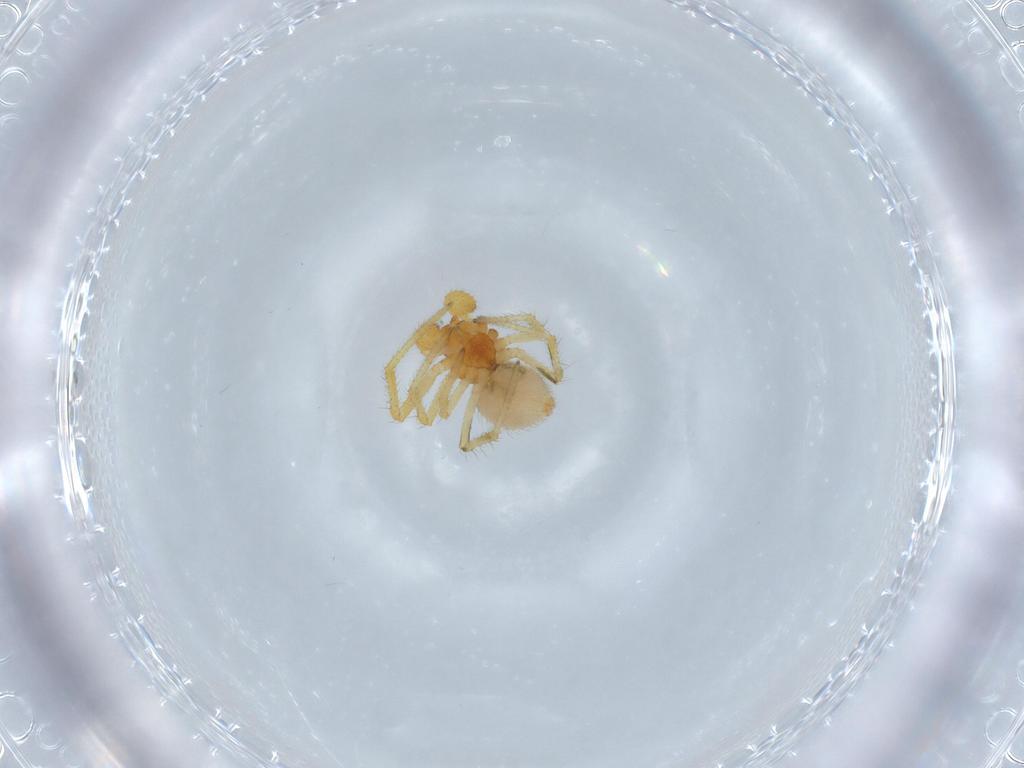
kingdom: Animalia
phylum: Arthropoda
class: Arachnida
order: Araneae
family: Theridiidae
